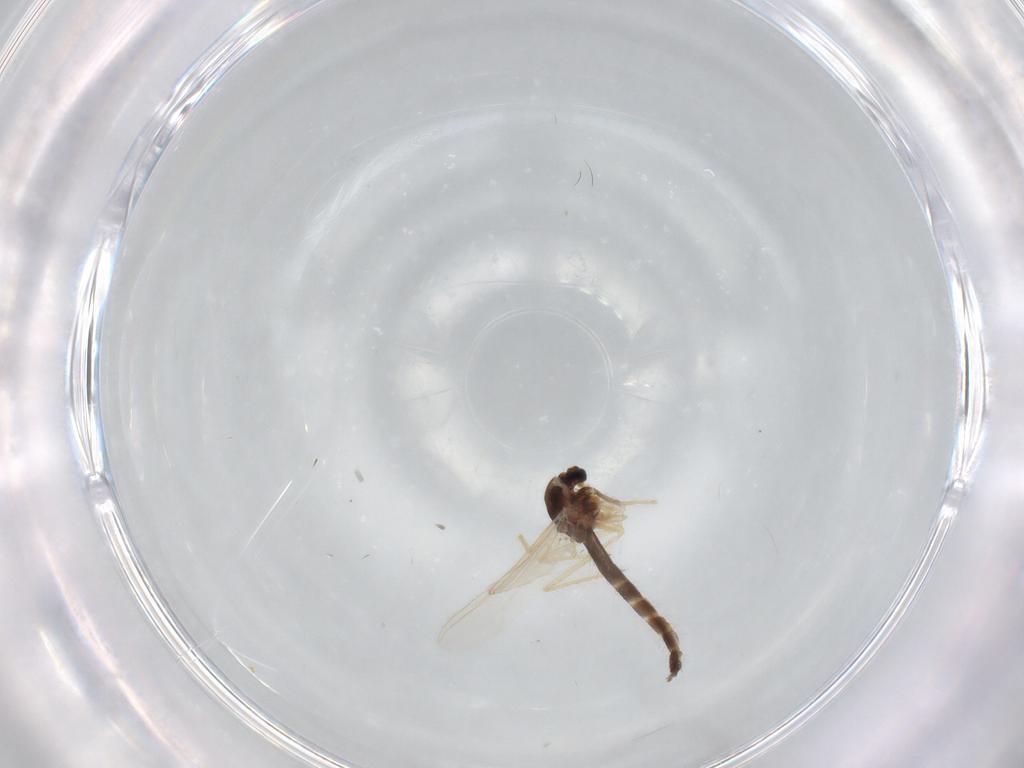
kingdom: Animalia
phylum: Arthropoda
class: Insecta
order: Diptera
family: Chironomidae
